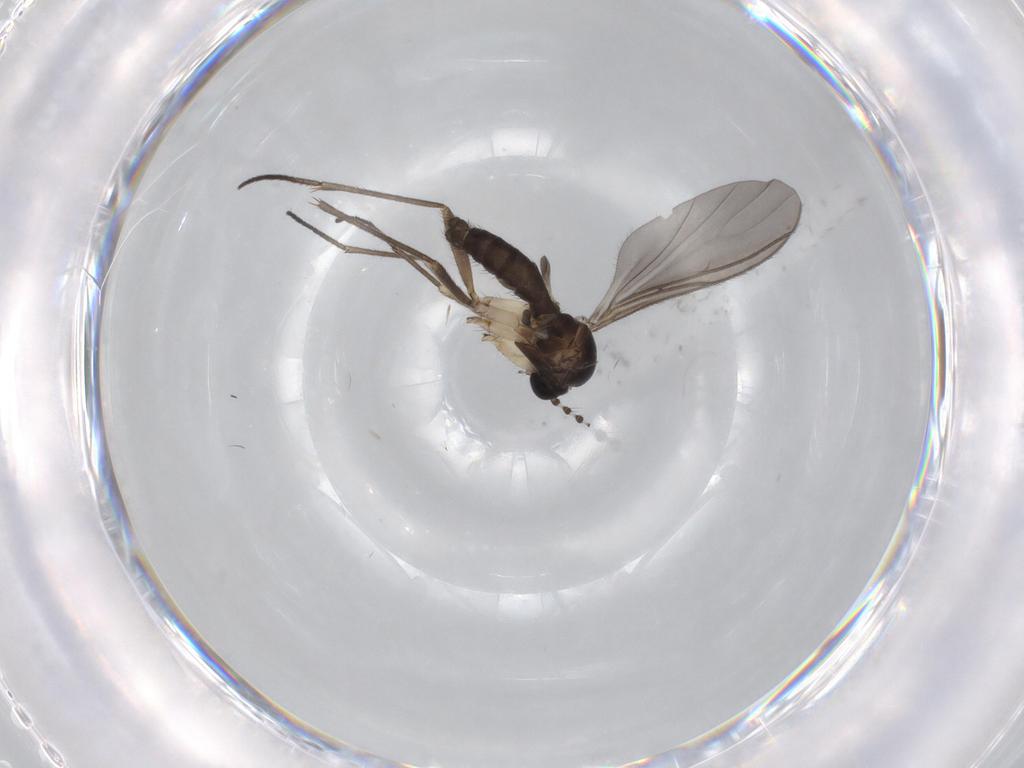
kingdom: Animalia
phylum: Arthropoda
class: Insecta
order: Diptera
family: Sciaridae
